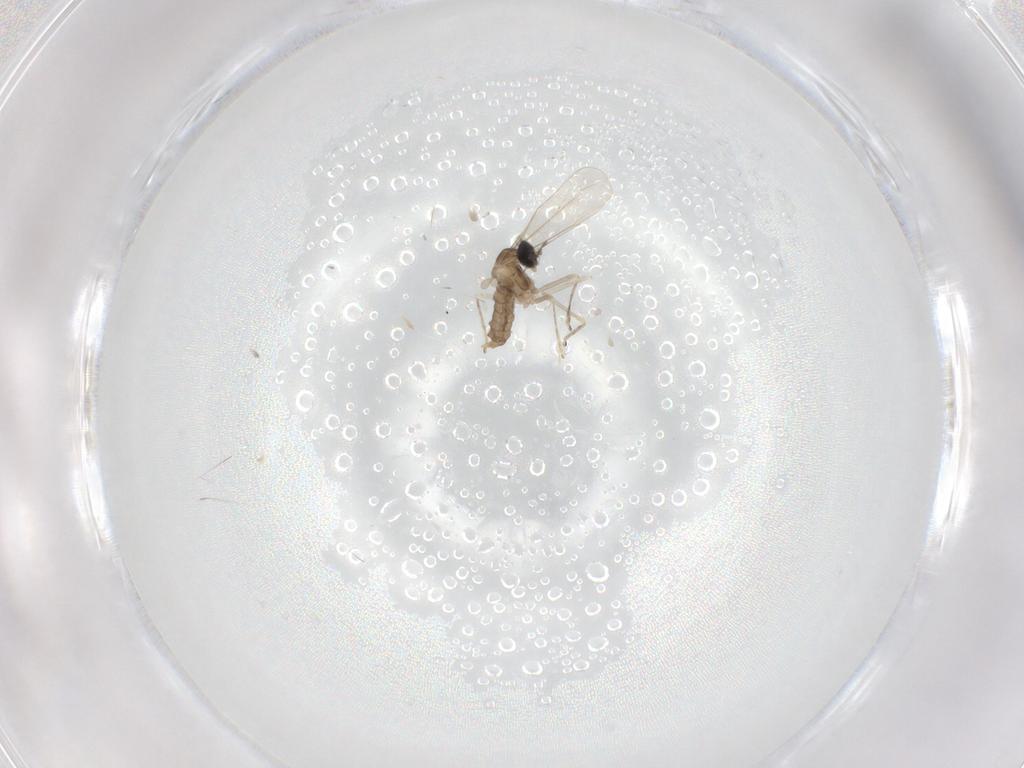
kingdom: Animalia
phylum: Arthropoda
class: Insecta
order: Diptera
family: Cecidomyiidae
